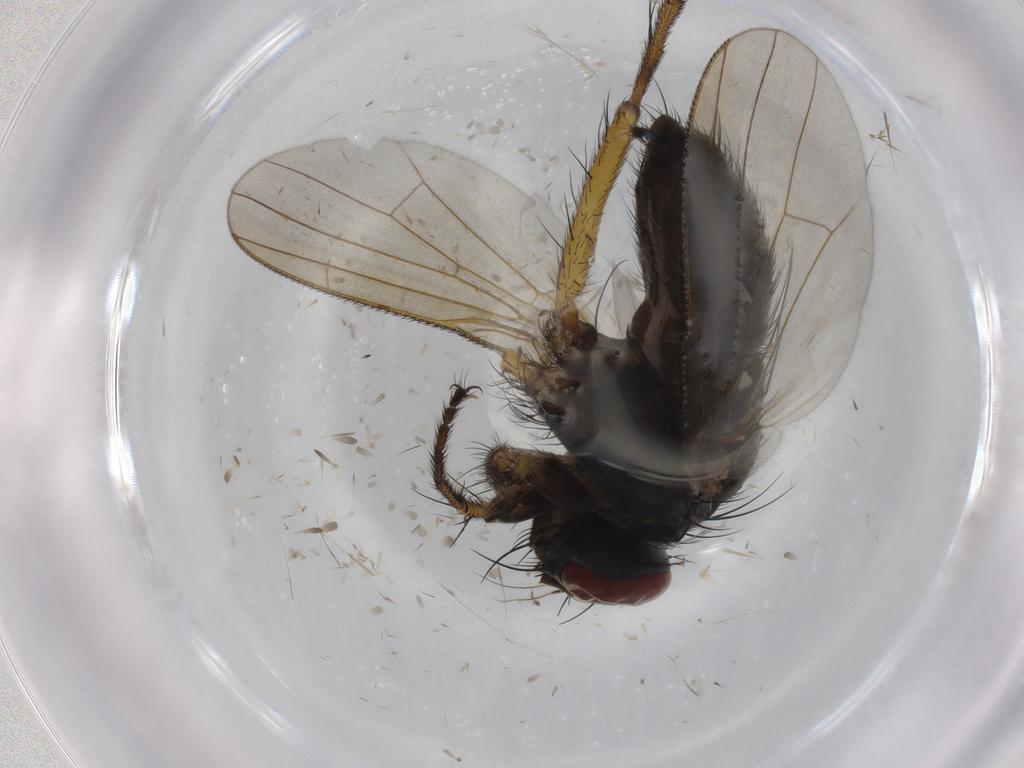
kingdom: Animalia
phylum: Arthropoda
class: Insecta
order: Diptera
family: Muscidae
